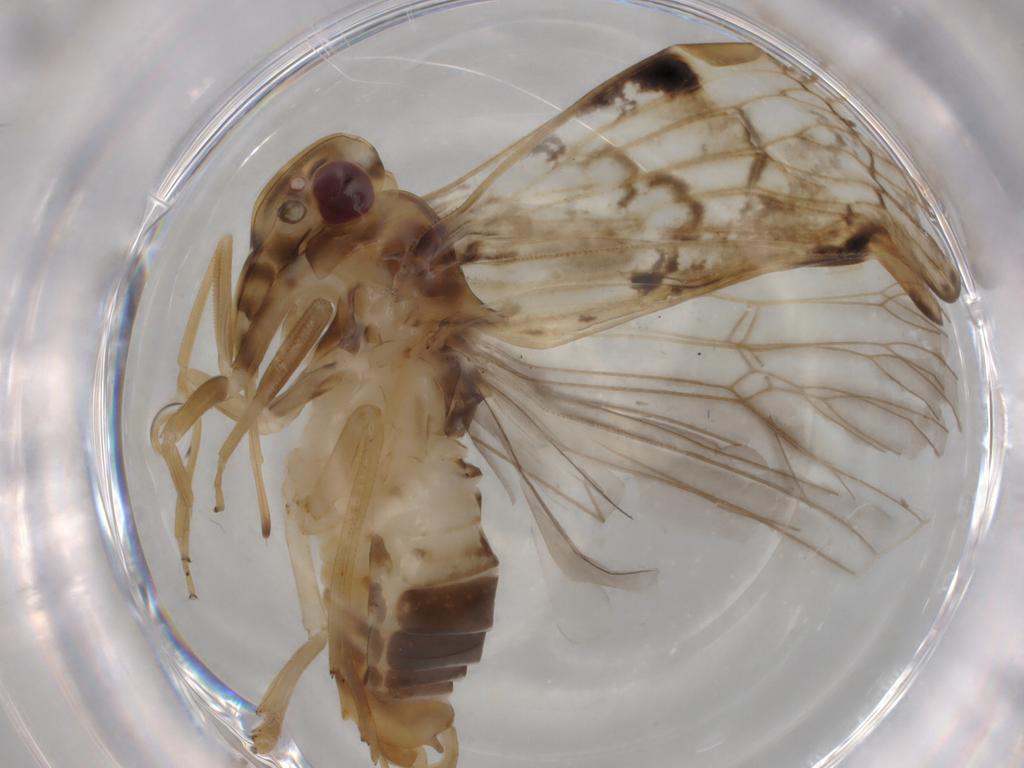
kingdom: Animalia
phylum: Arthropoda
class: Insecta
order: Hemiptera
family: Cixiidae
